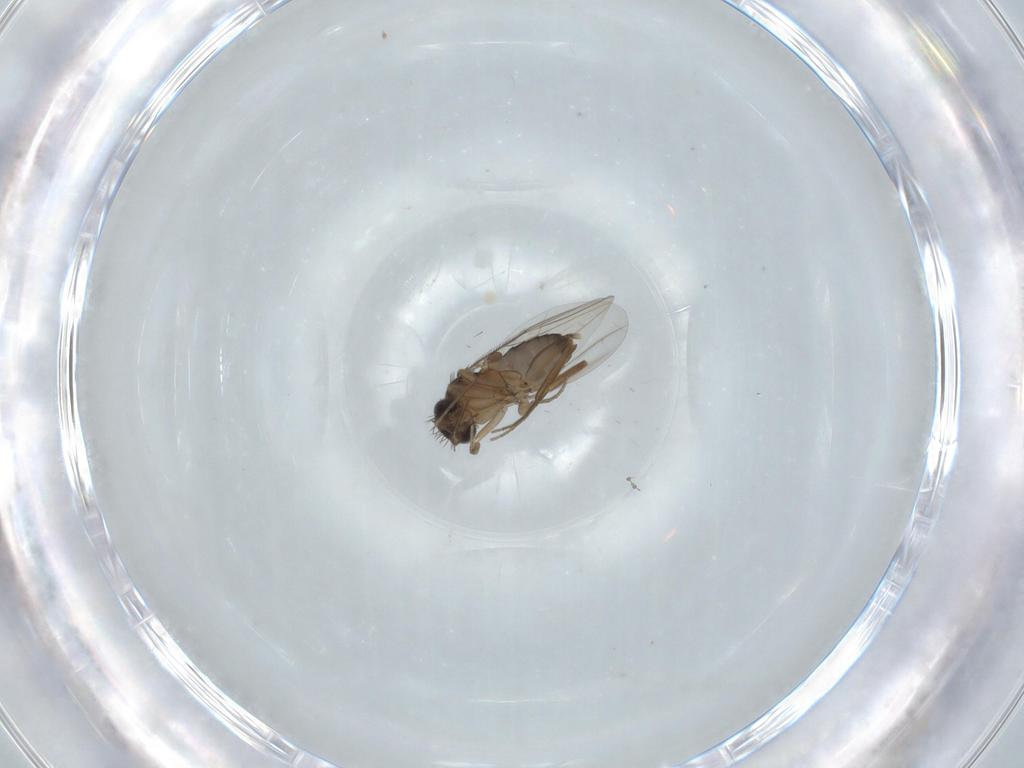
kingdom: Animalia
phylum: Arthropoda
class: Insecta
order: Diptera
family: Phoridae
